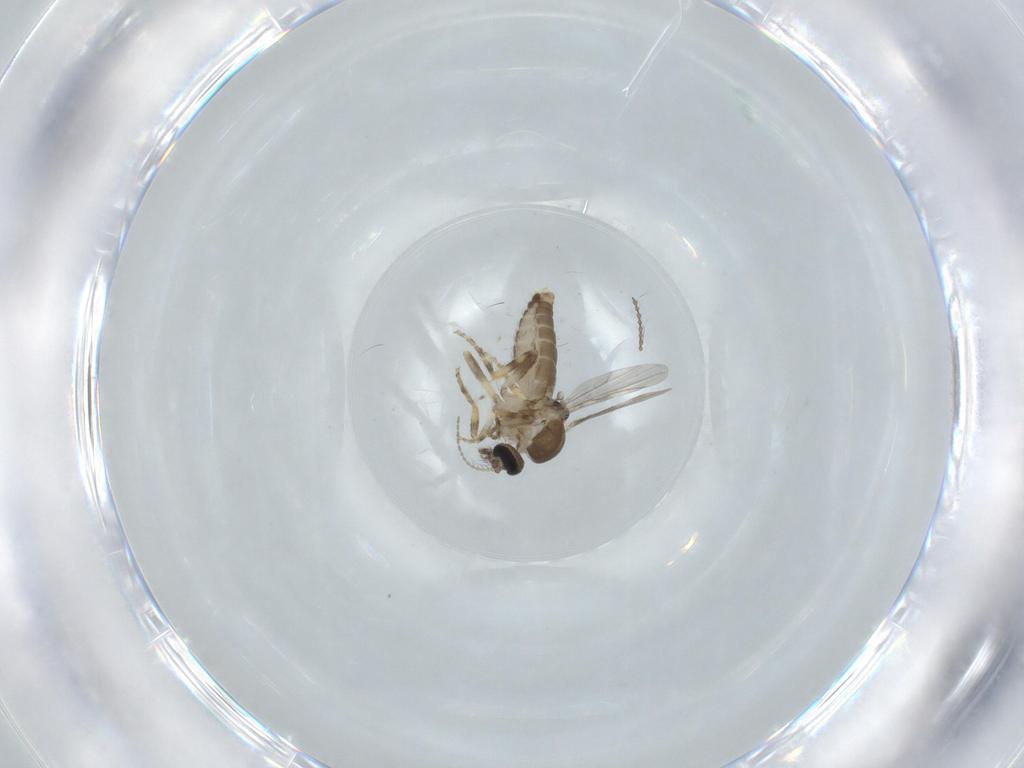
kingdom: Animalia
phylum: Arthropoda
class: Insecta
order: Diptera
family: Ceratopogonidae
